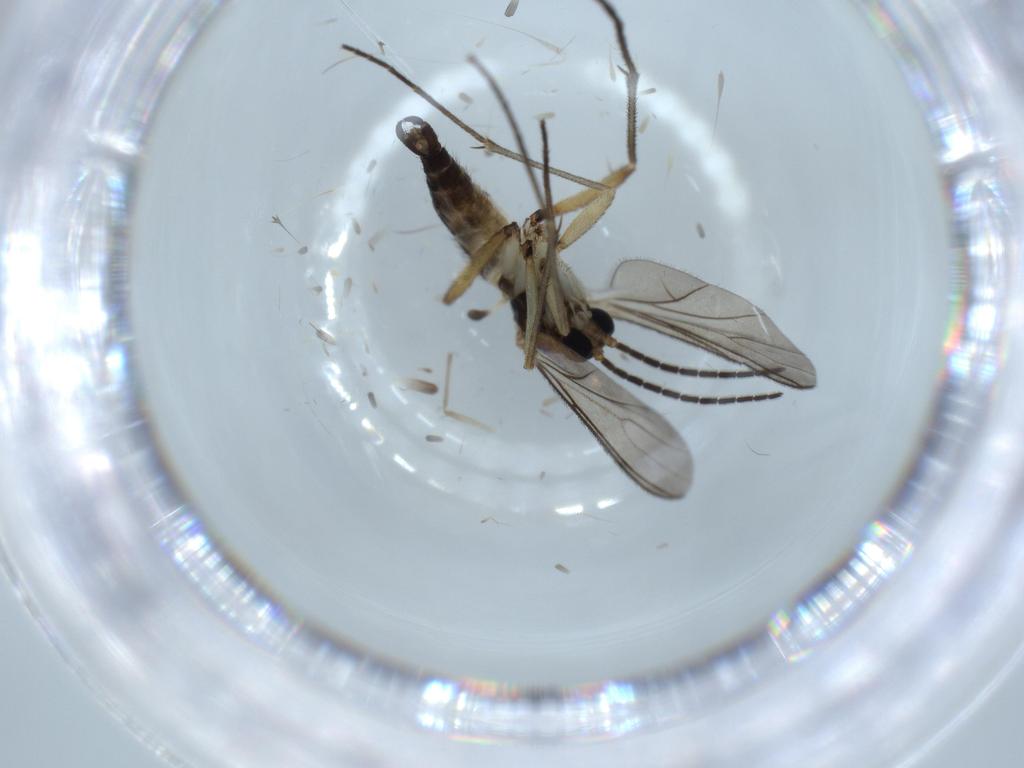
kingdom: Animalia
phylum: Arthropoda
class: Insecta
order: Diptera
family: Sciaridae
